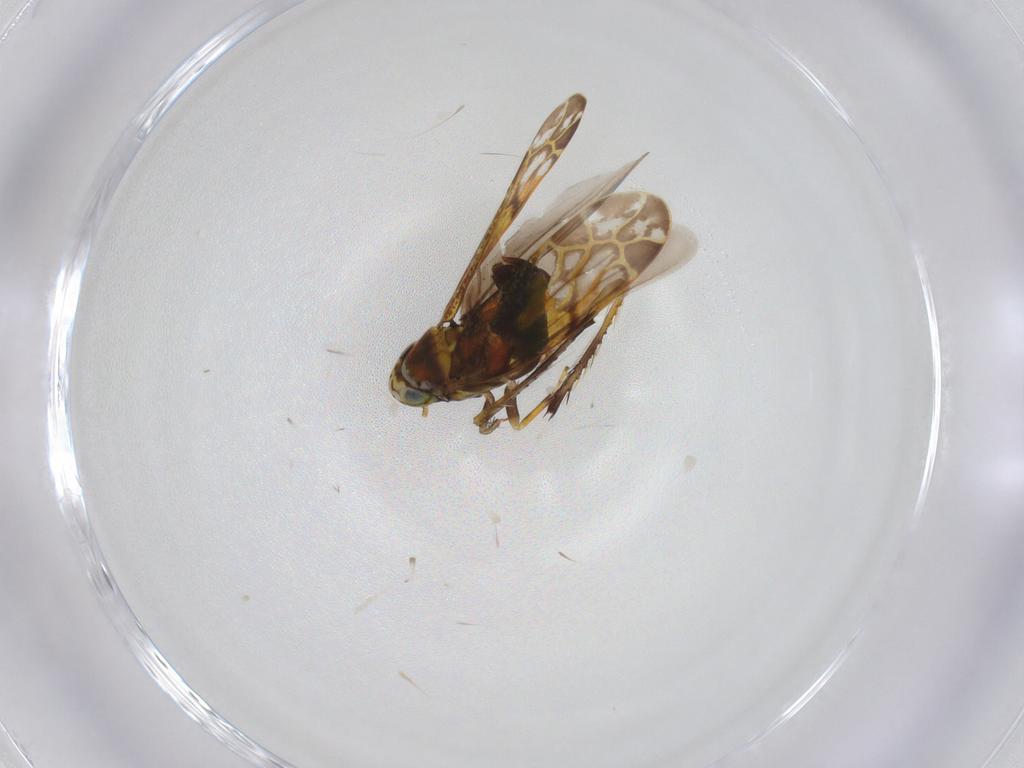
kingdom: Animalia
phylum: Arthropoda
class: Insecta
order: Hemiptera
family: Cicadellidae
